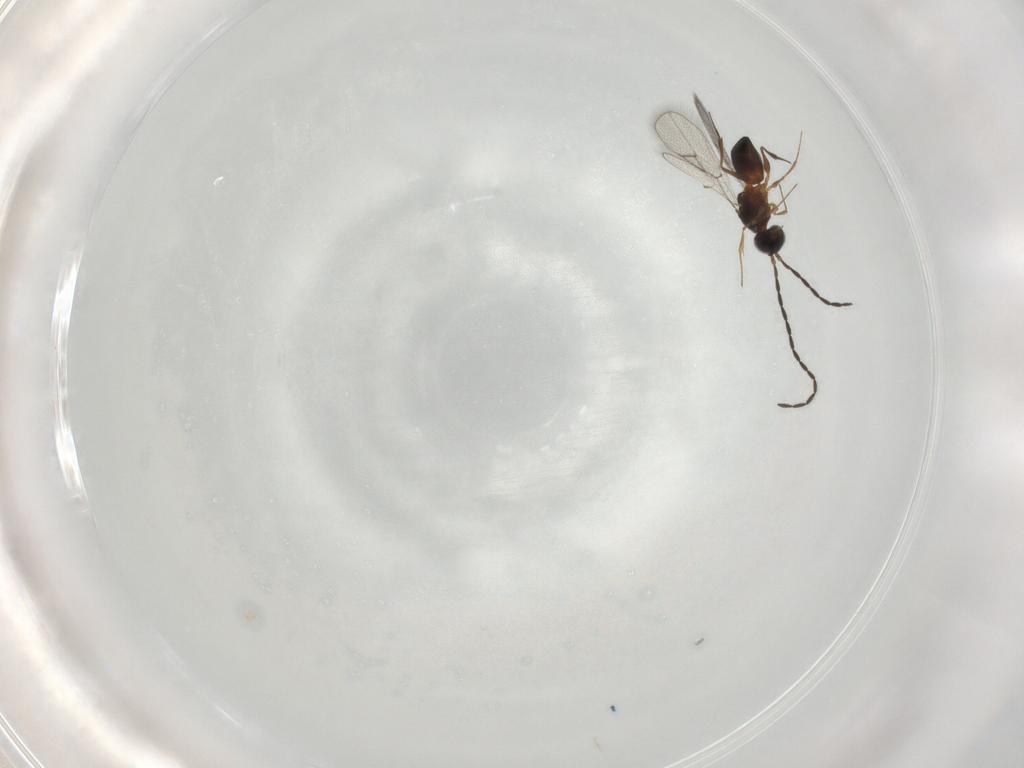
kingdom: Animalia
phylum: Arthropoda
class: Insecta
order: Hymenoptera
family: Figitidae
